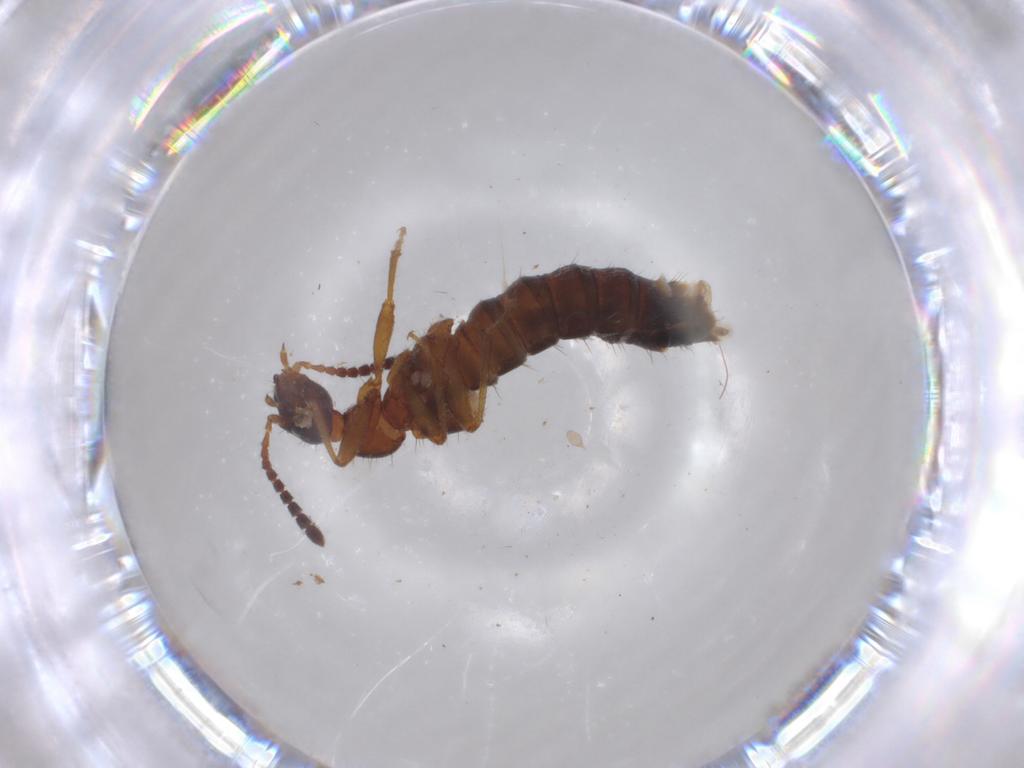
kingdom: Animalia
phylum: Arthropoda
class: Insecta
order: Coleoptera
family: Staphylinidae
